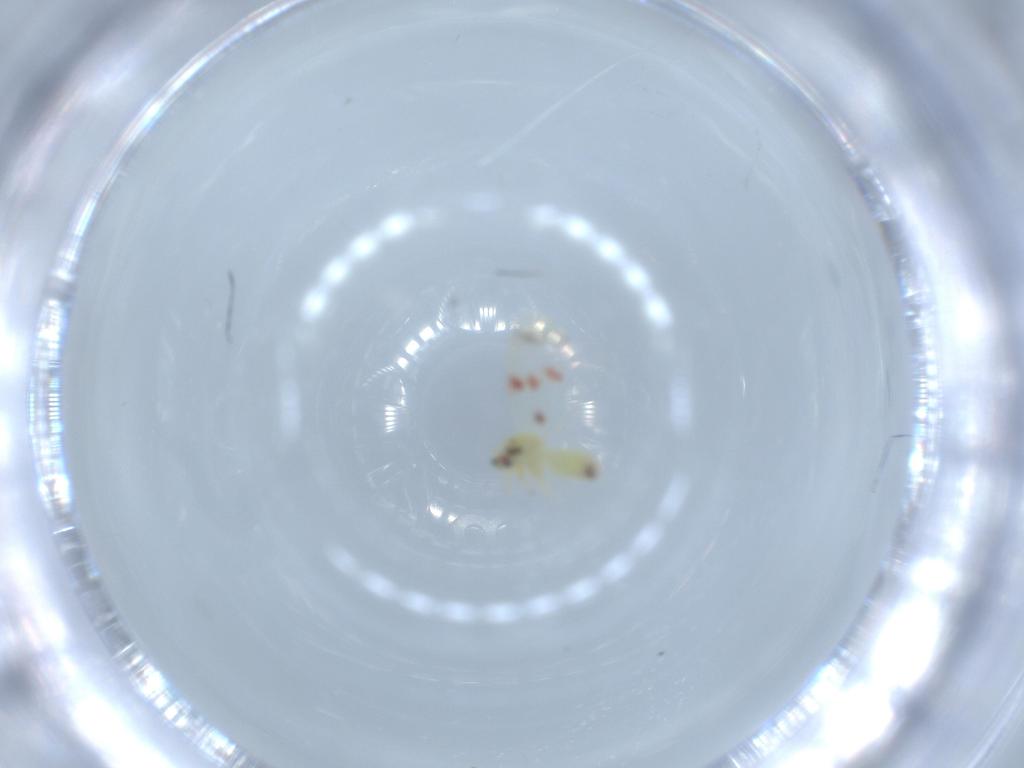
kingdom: Animalia
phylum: Arthropoda
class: Insecta
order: Hemiptera
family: Aleyrodidae
